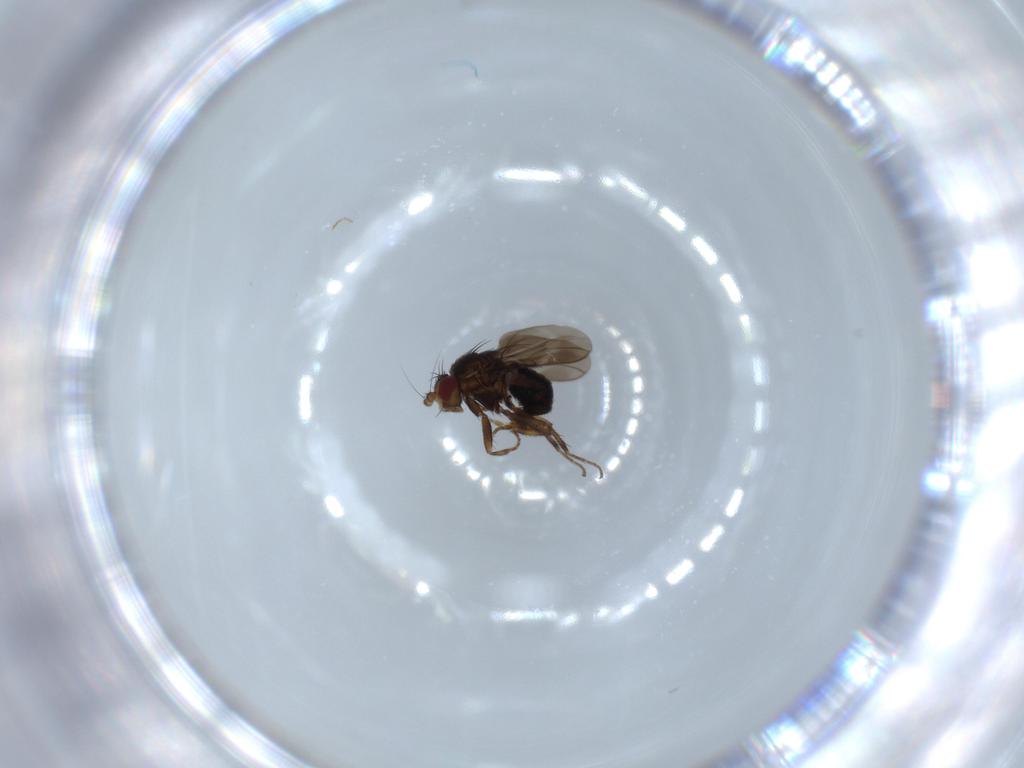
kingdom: Animalia
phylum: Arthropoda
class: Insecta
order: Diptera
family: Sphaeroceridae
